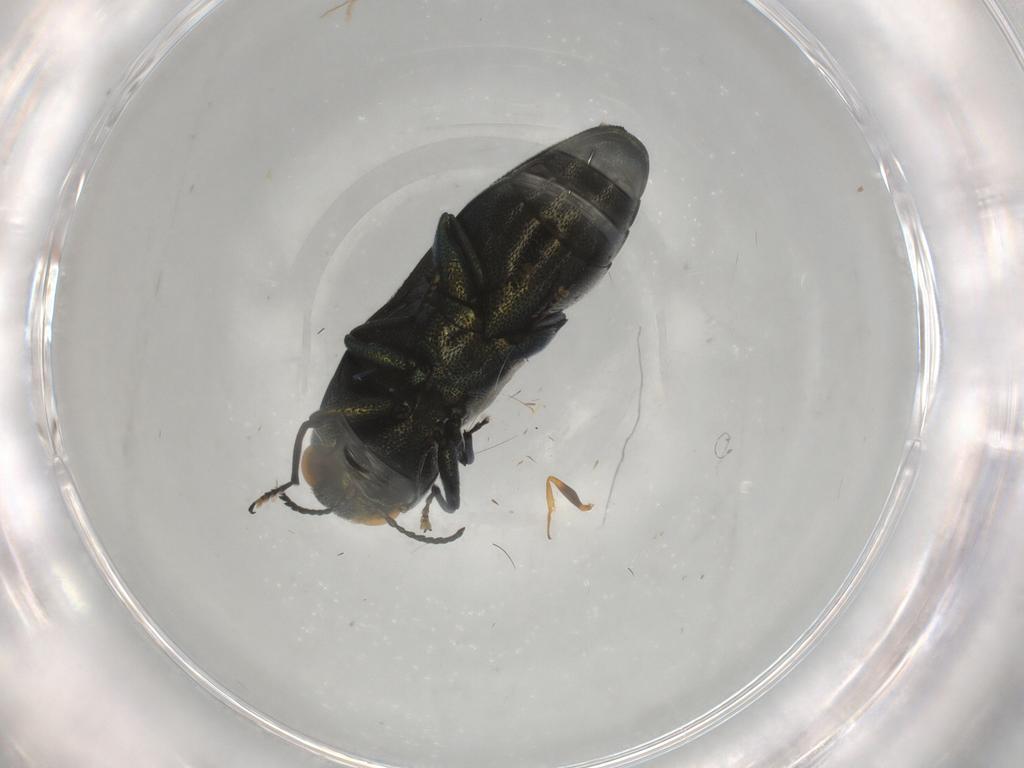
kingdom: Animalia
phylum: Arthropoda
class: Insecta
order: Coleoptera
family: Buprestidae
